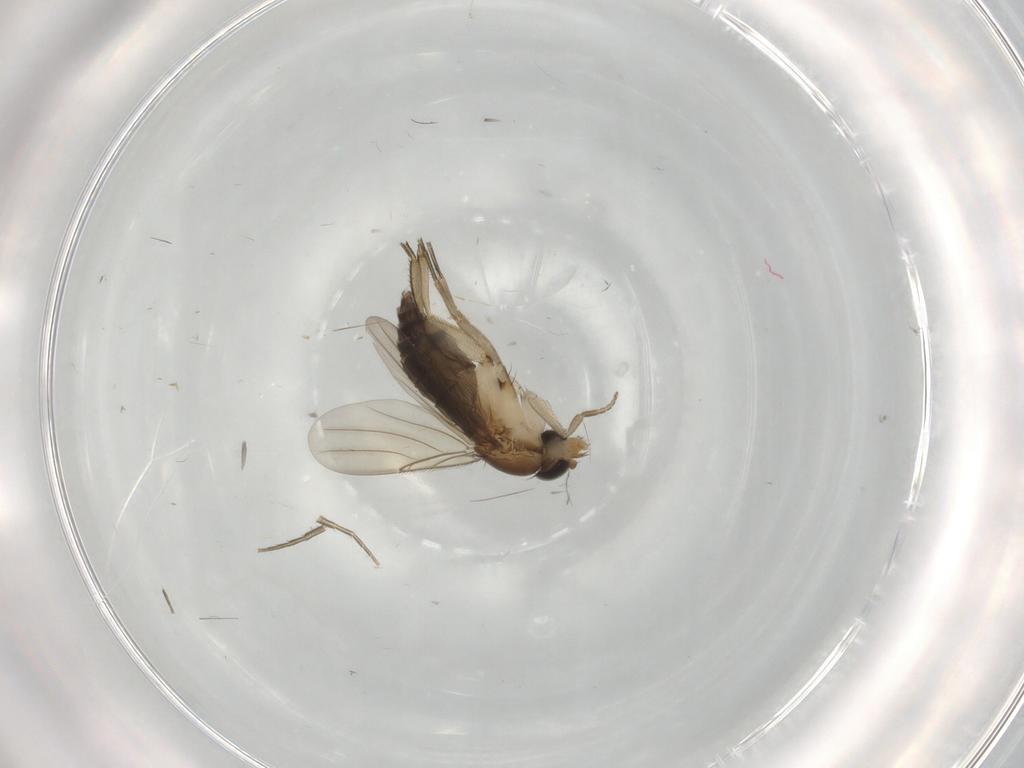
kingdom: Animalia
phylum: Arthropoda
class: Insecta
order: Diptera
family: Phoridae
